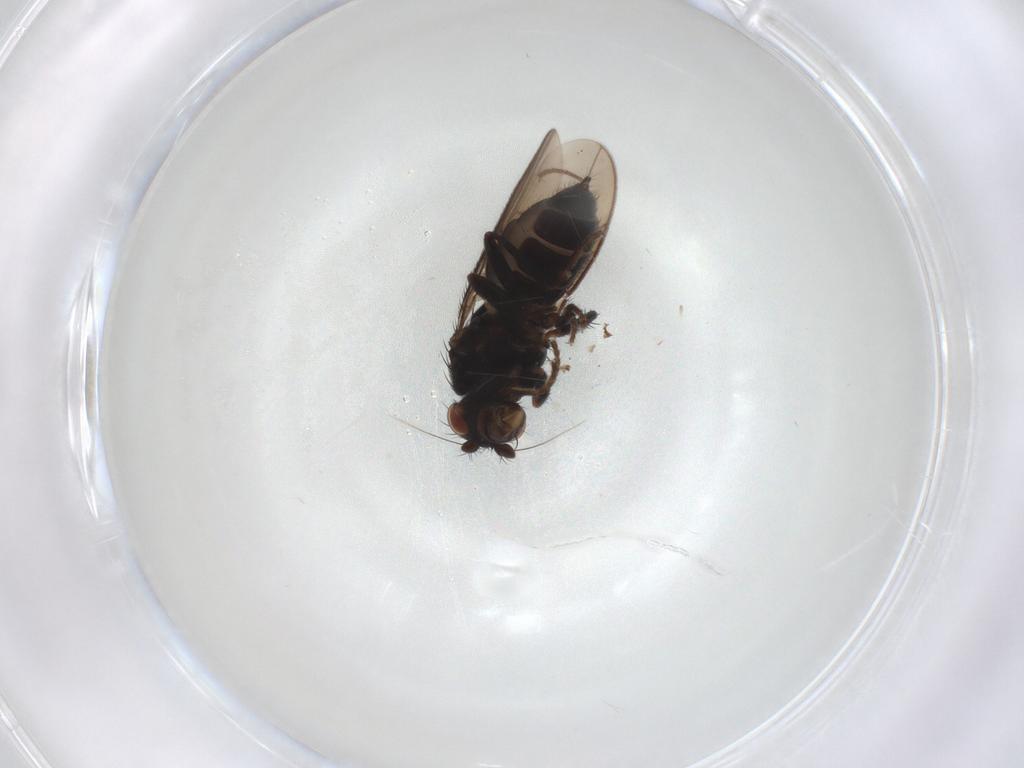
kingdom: Animalia
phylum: Arthropoda
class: Insecta
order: Diptera
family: Sphaeroceridae
